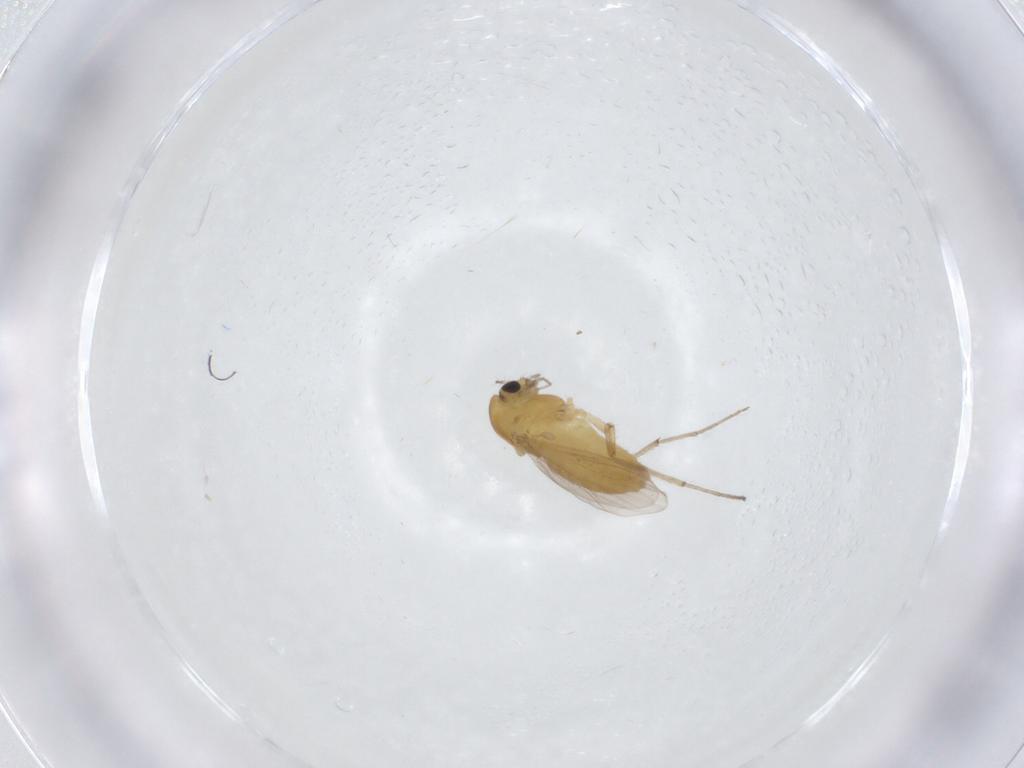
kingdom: Animalia
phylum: Arthropoda
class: Insecta
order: Diptera
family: Chironomidae
